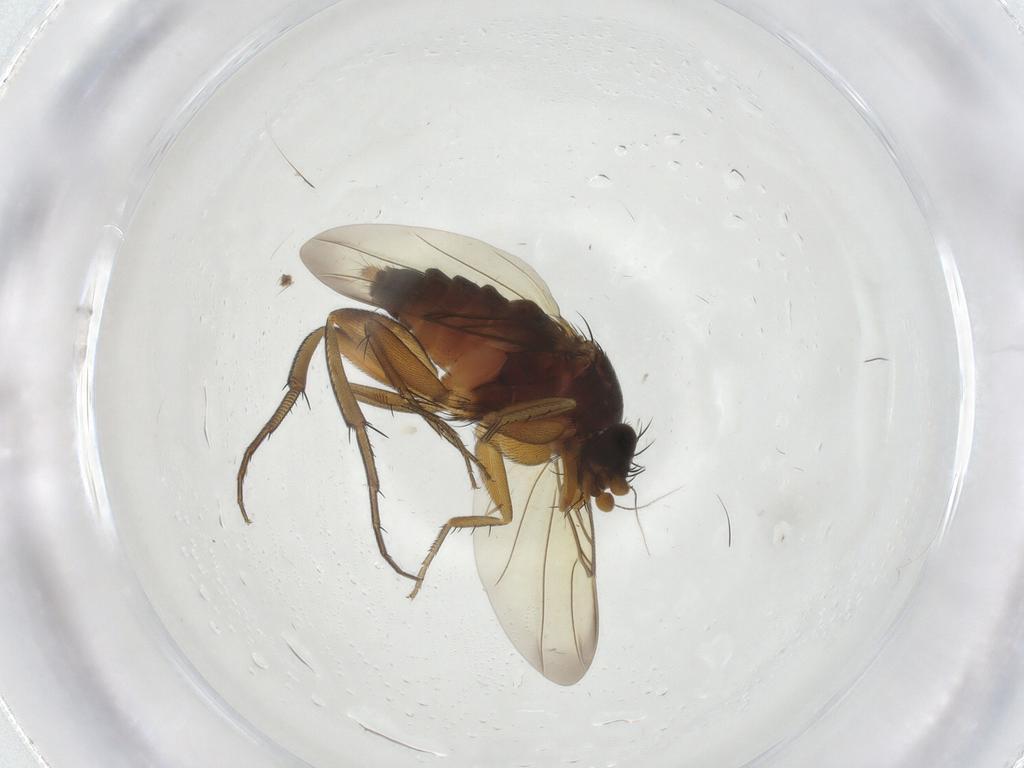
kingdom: Animalia
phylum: Arthropoda
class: Insecta
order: Diptera
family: Phoridae
